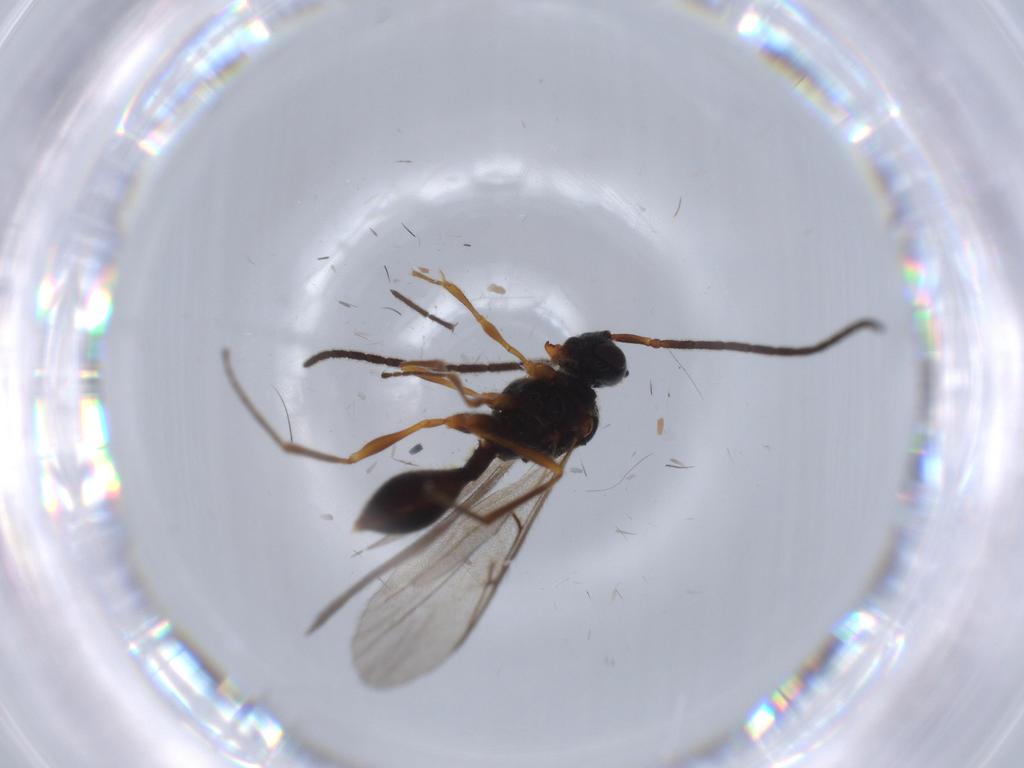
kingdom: Animalia
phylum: Arthropoda
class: Insecta
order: Hymenoptera
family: Diapriidae
